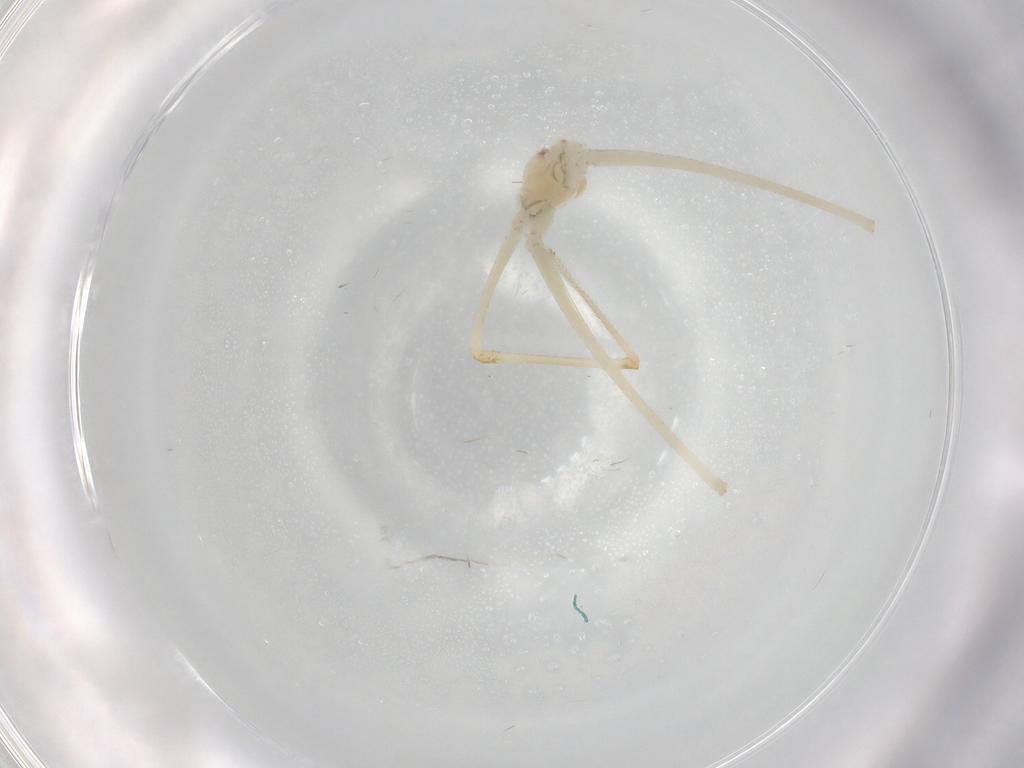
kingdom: Animalia
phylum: Arthropoda
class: Arachnida
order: Araneae
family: Pholcidae
